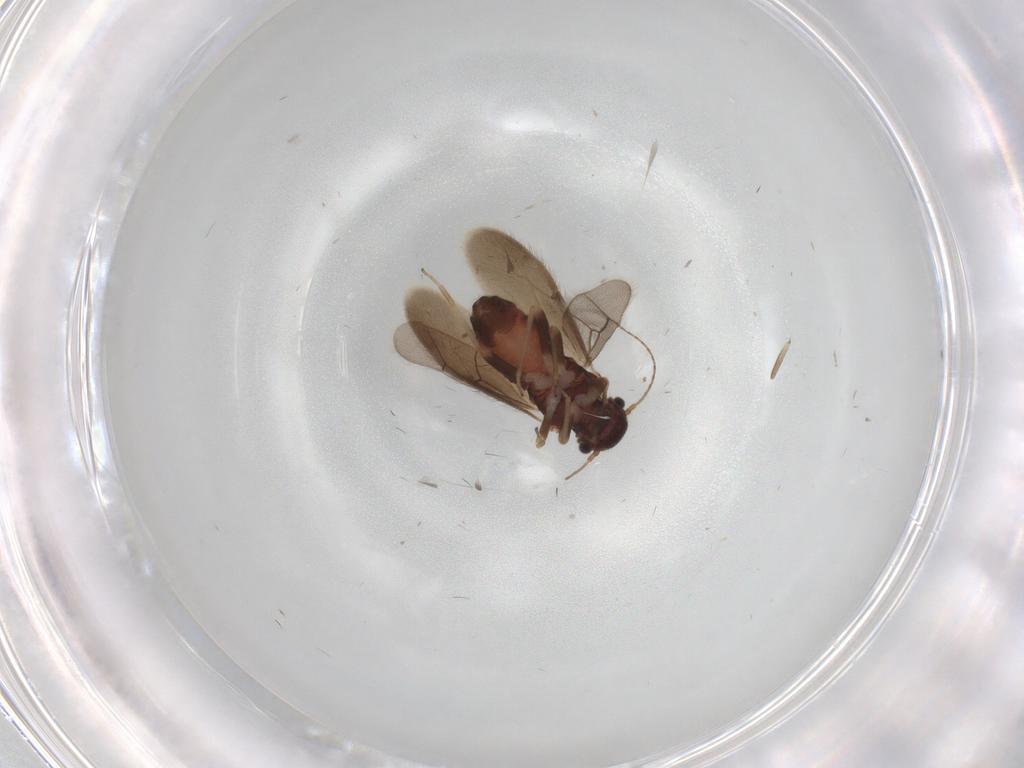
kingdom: Animalia
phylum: Arthropoda
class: Insecta
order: Psocodea
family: Archipsocidae
